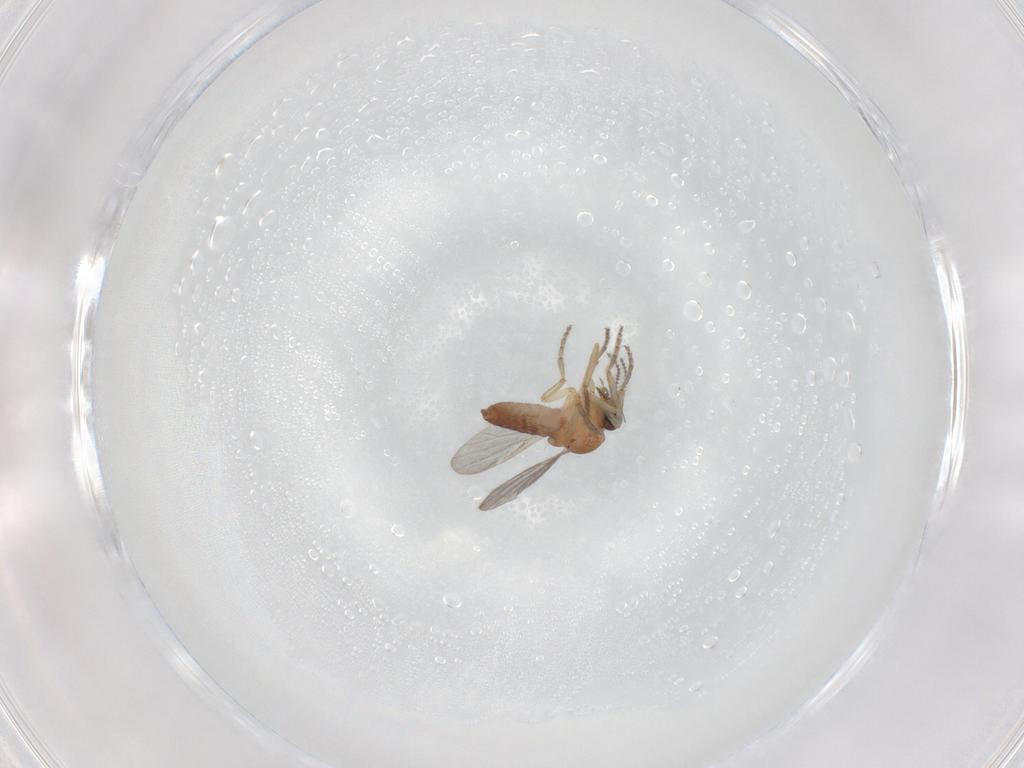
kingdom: Animalia
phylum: Arthropoda
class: Insecta
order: Diptera
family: Ceratopogonidae
